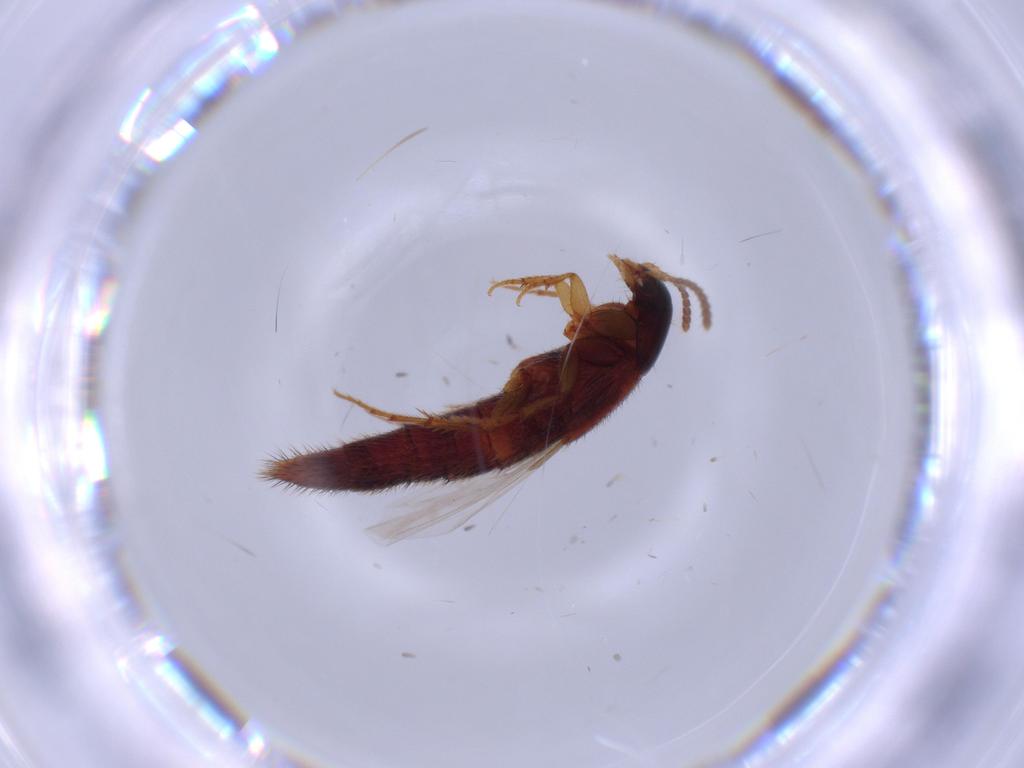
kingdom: Animalia
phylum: Arthropoda
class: Insecta
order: Coleoptera
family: Staphylinidae
